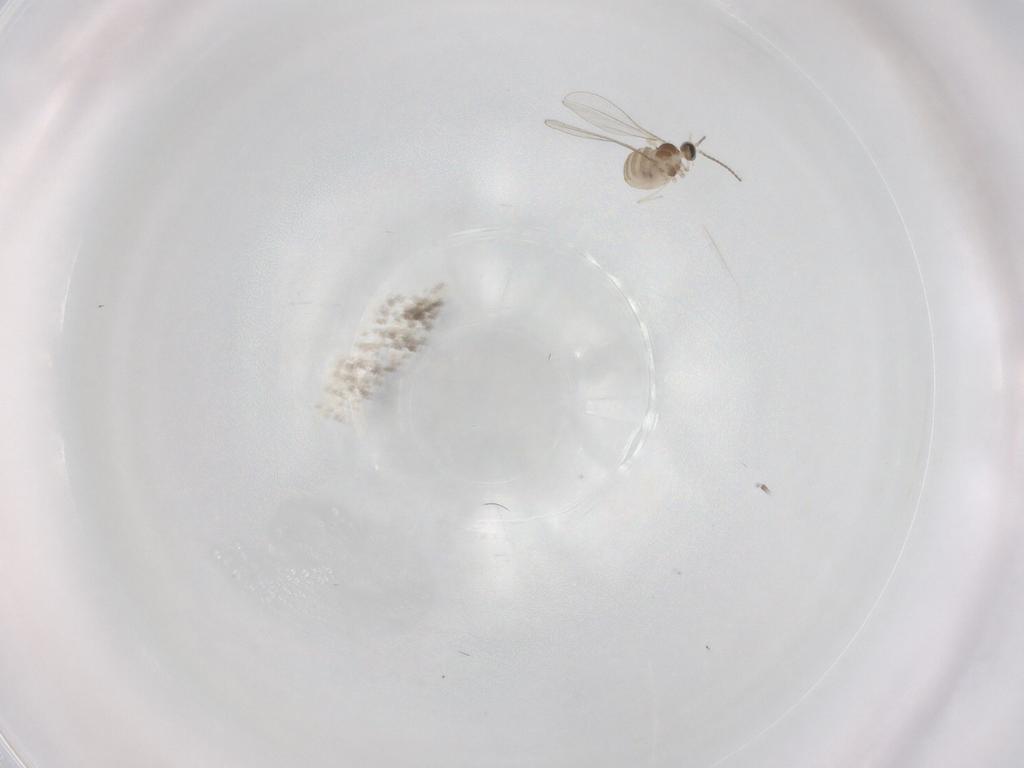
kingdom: Animalia
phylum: Arthropoda
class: Insecta
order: Diptera
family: Cecidomyiidae
